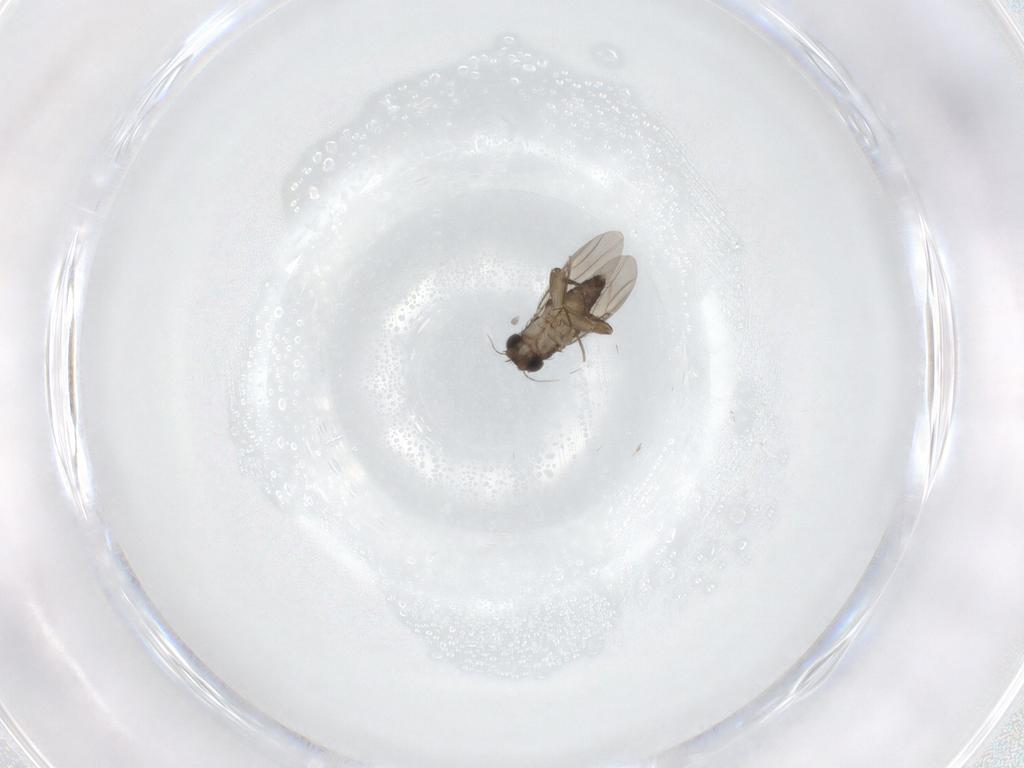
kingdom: Animalia
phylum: Arthropoda
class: Insecta
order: Diptera
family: Phoridae
